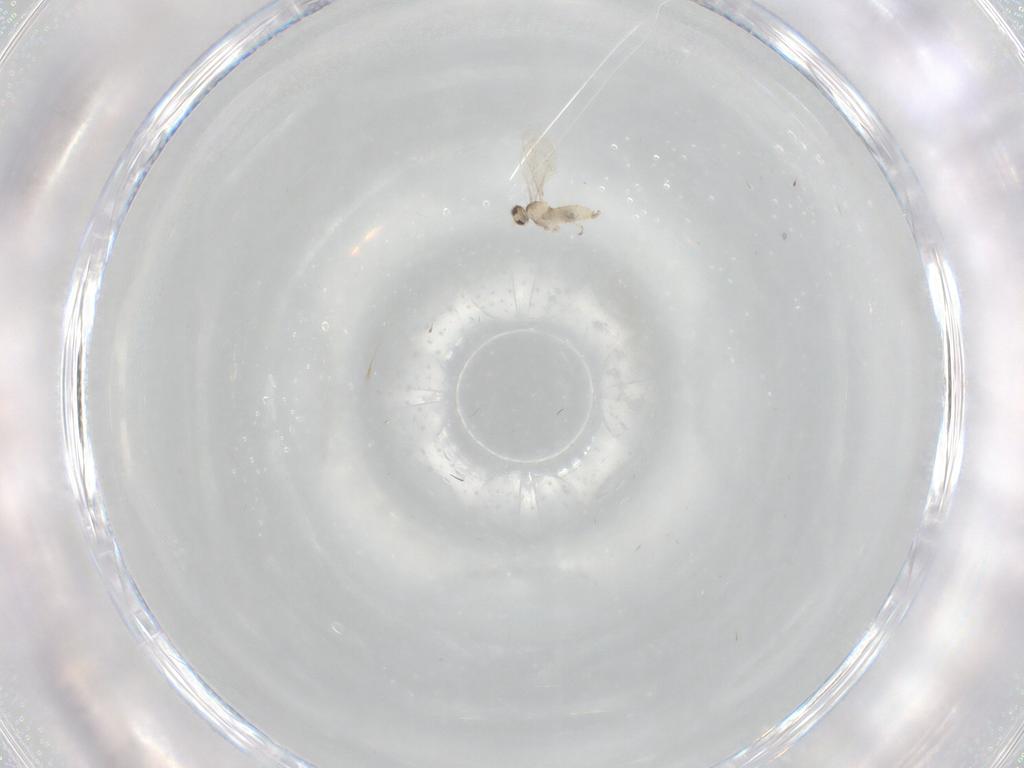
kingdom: Animalia
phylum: Arthropoda
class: Insecta
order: Diptera
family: Cecidomyiidae
